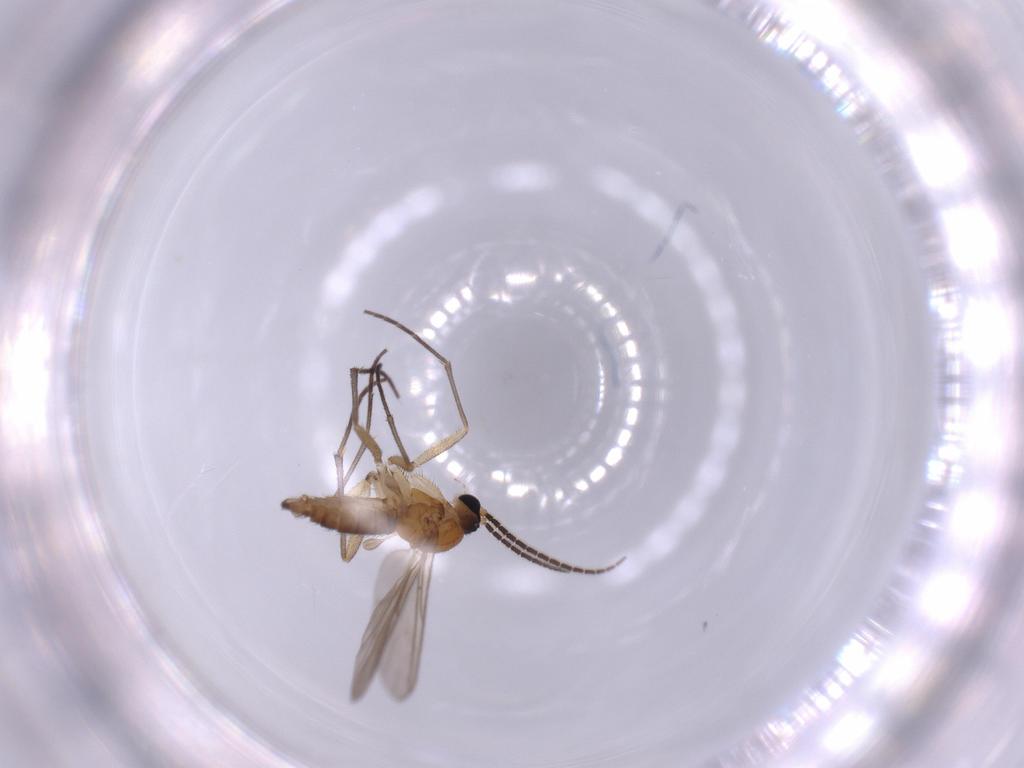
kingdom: Animalia
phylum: Arthropoda
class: Insecta
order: Diptera
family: Sciaridae
